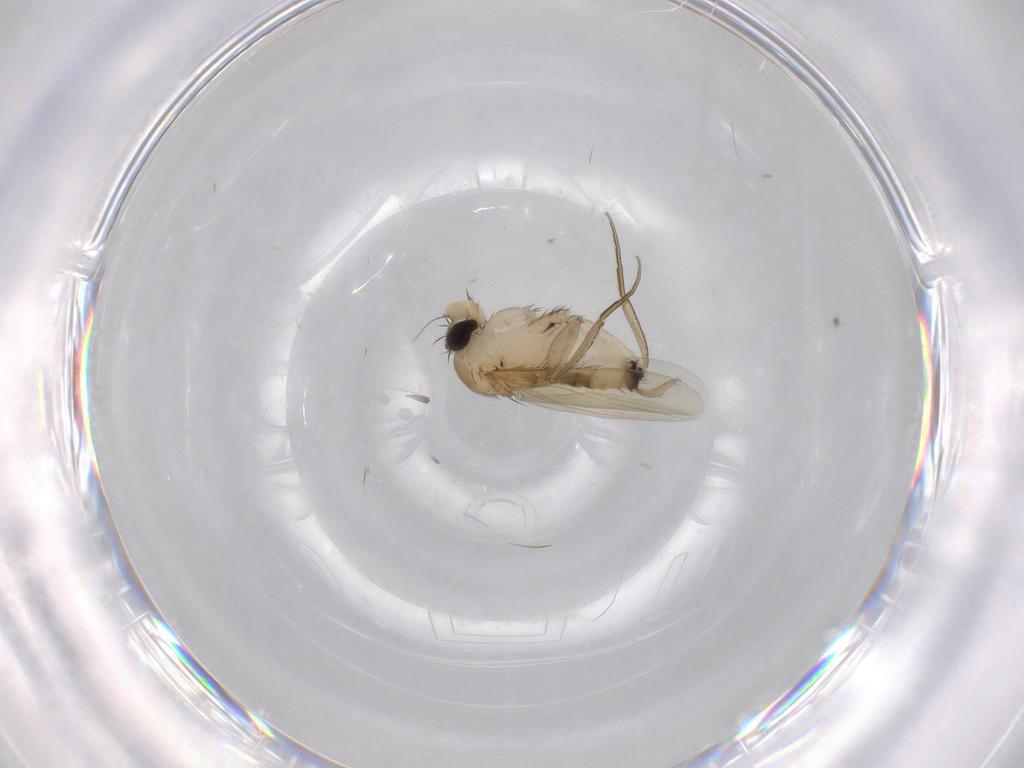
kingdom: Animalia
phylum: Arthropoda
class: Insecta
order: Diptera
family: Phoridae
